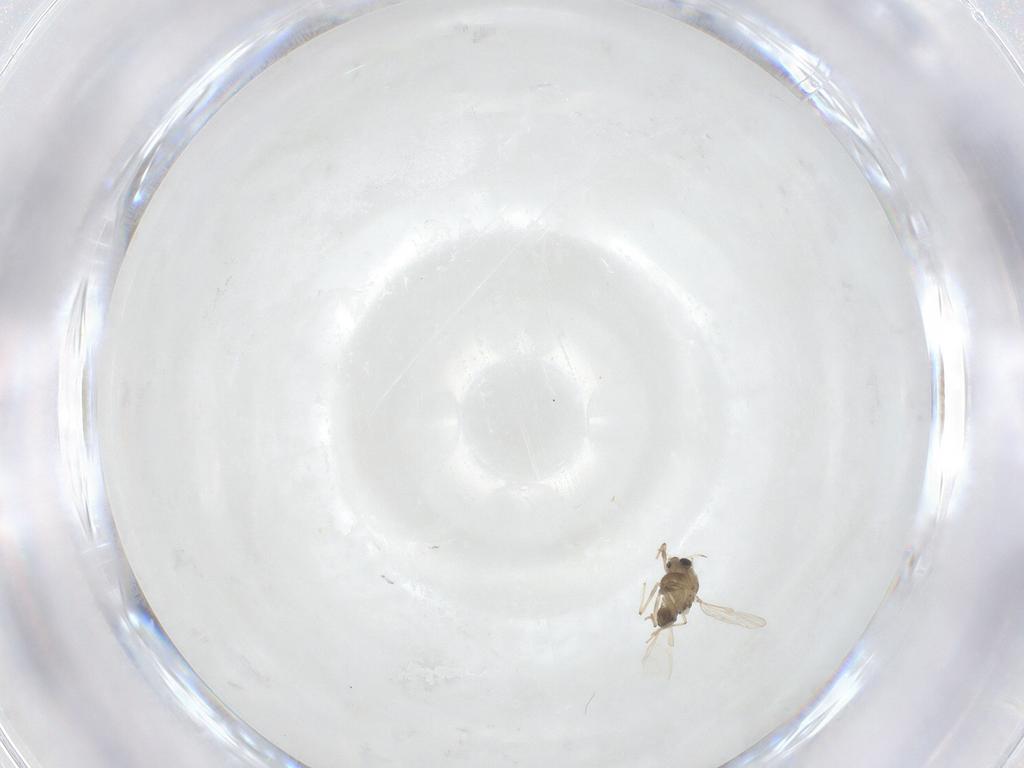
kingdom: Animalia
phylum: Arthropoda
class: Insecta
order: Diptera
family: Chironomidae
